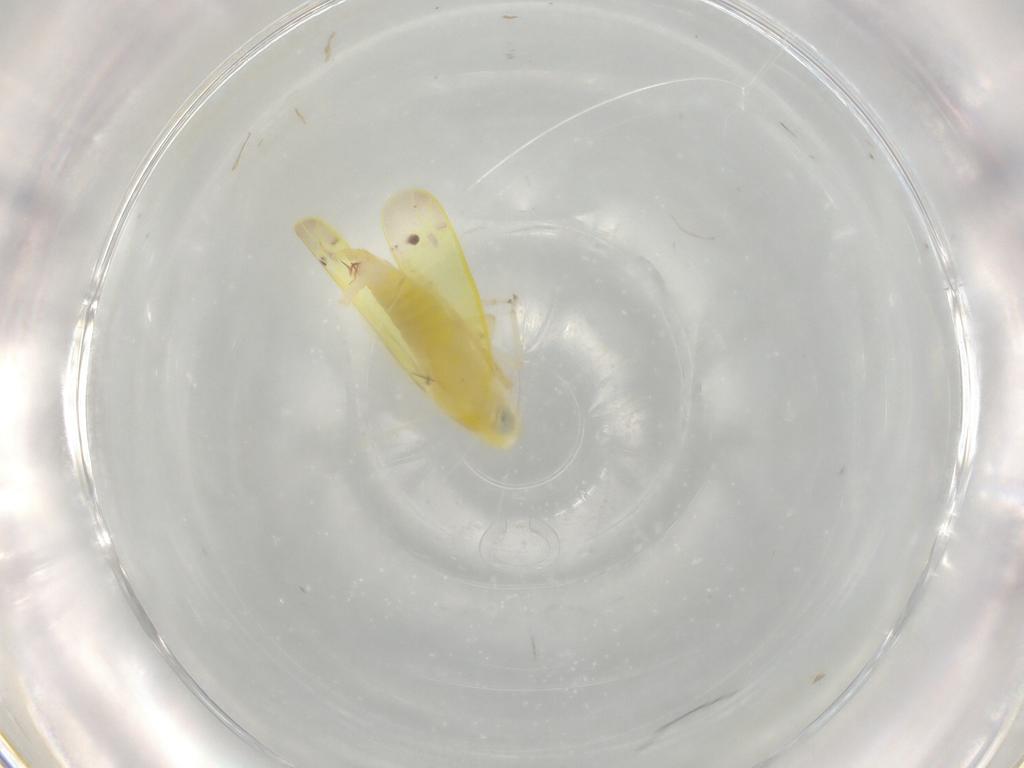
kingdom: Animalia
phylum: Arthropoda
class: Insecta
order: Hemiptera
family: Cicadellidae
